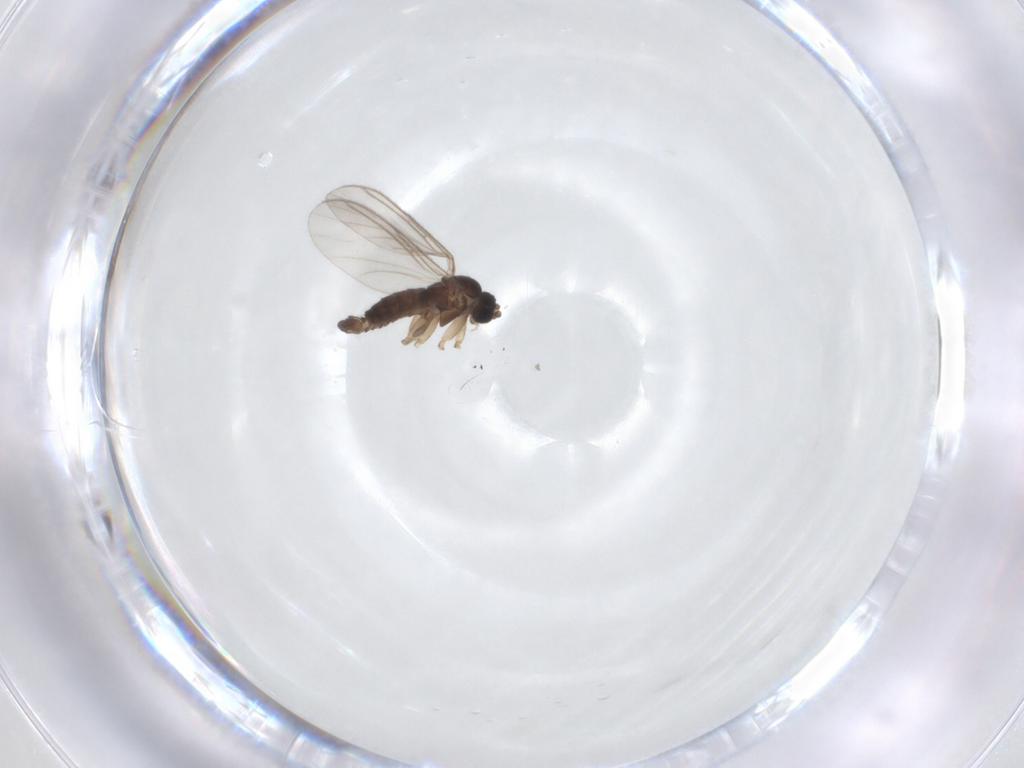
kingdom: Animalia
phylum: Arthropoda
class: Insecta
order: Diptera
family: Sciaridae
